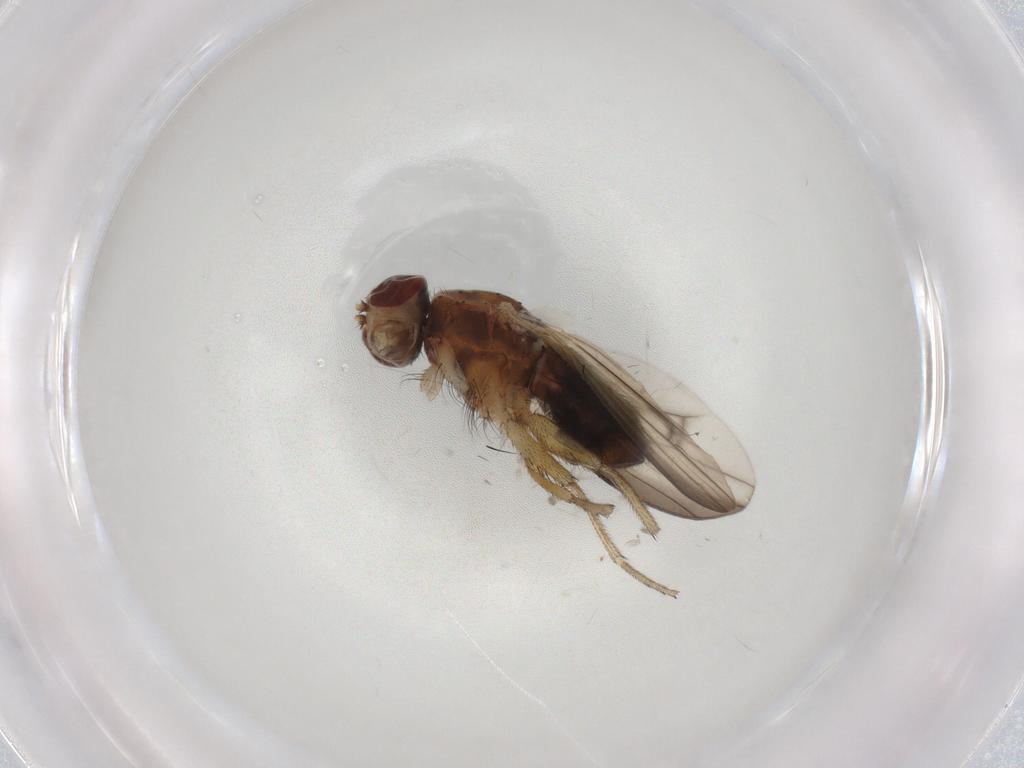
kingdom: Animalia
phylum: Arthropoda
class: Insecta
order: Diptera
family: Heleomyzidae
